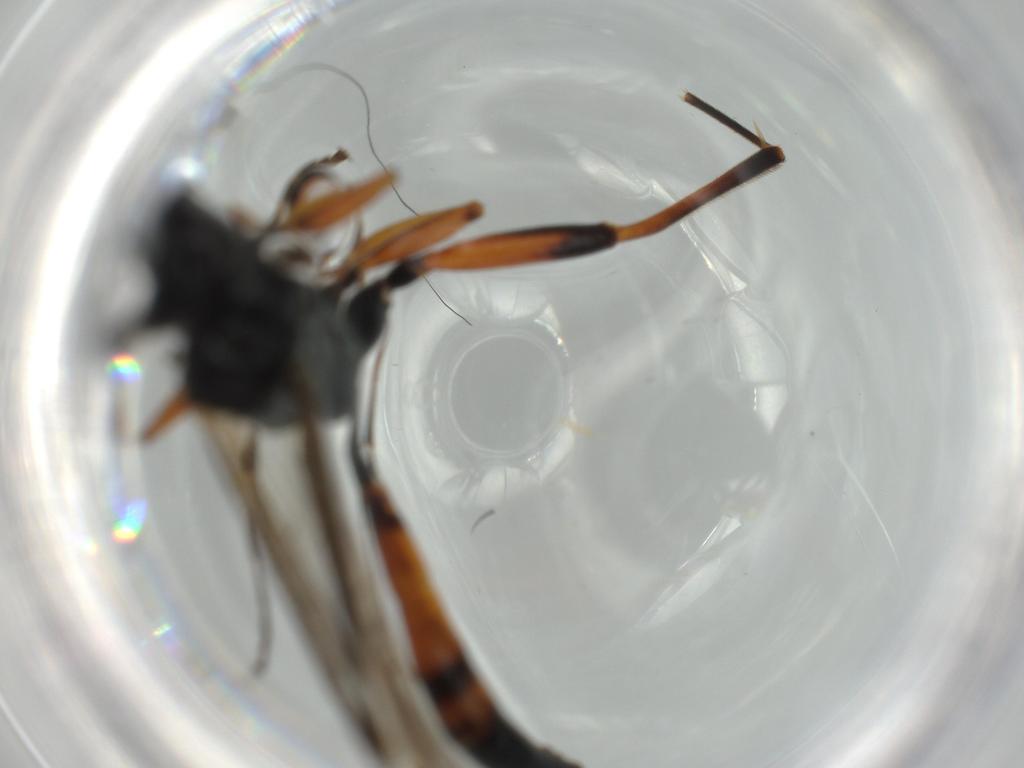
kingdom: Animalia
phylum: Arthropoda
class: Insecta
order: Hymenoptera
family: Ichneumonidae
